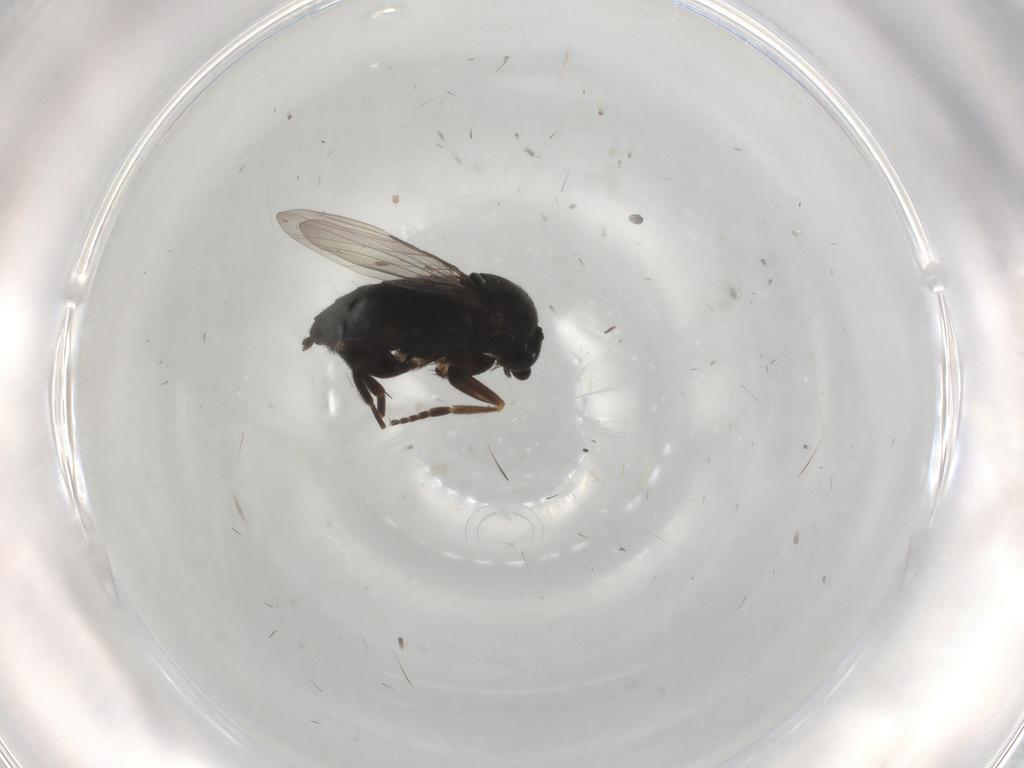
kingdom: Animalia
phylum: Arthropoda
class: Insecta
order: Diptera
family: Phoridae
